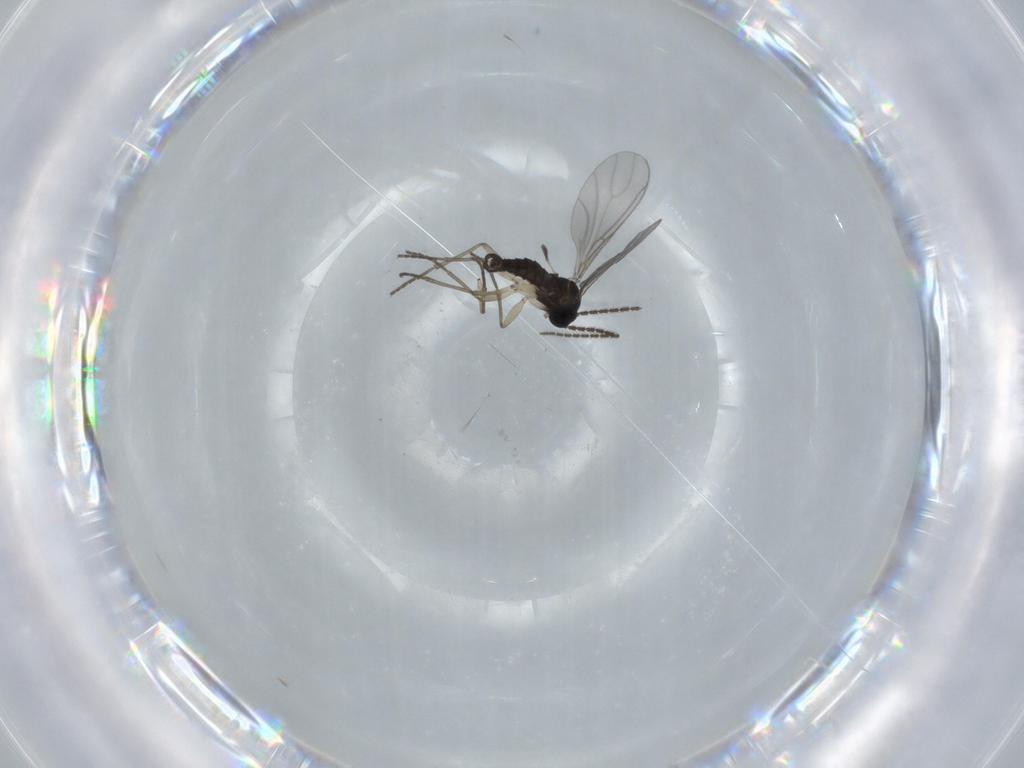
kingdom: Animalia
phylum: Arthropoda
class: Insecta
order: Diptera
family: Sciaridae
